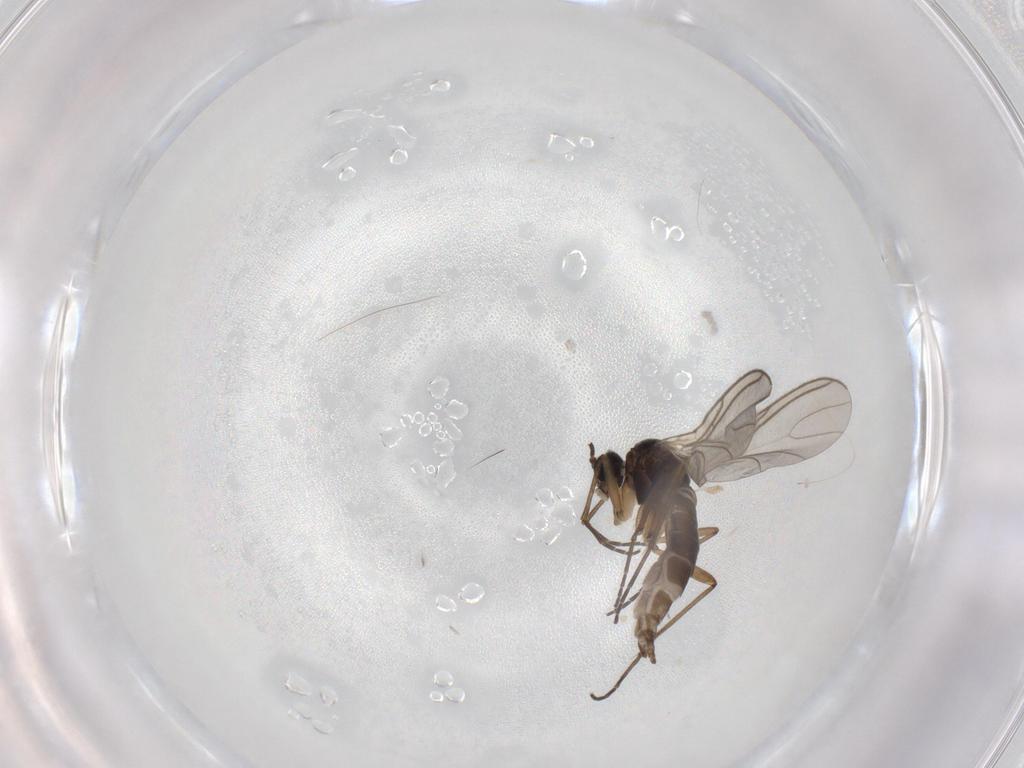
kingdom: Animalia
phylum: Arthropoda
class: Insecta
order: Diptera
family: Sciaridae
